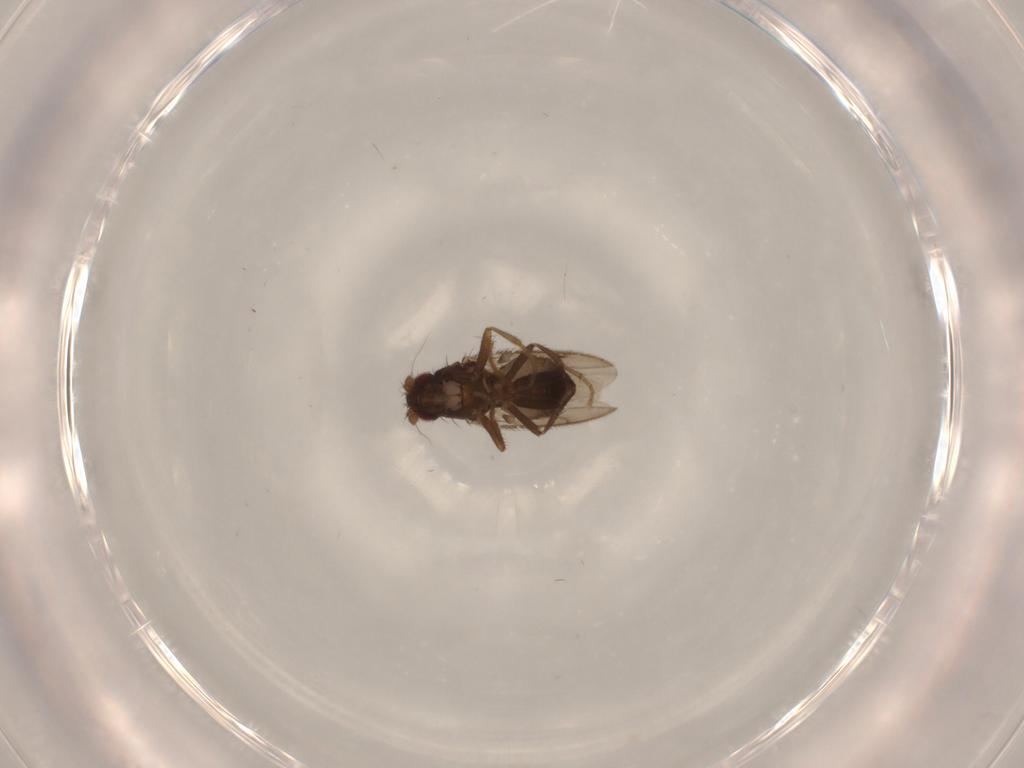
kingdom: Animalia
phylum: Arthropoda
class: Insecta
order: Diptera
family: Sphaeroceridae
